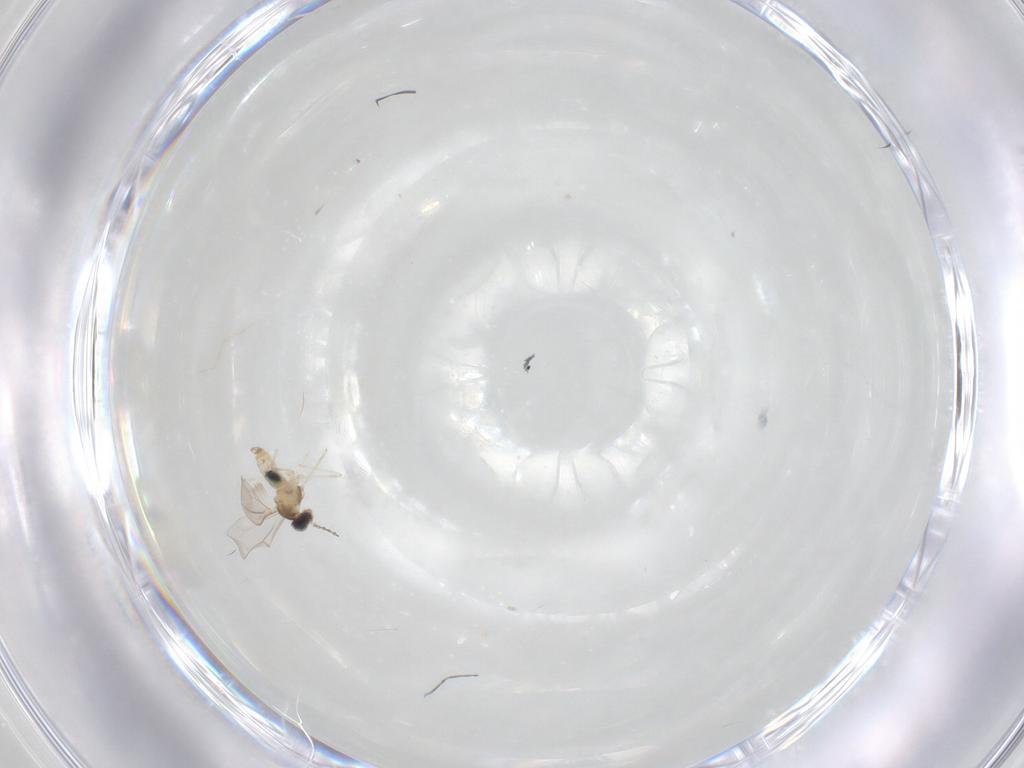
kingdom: Animalia
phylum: Arthropoda
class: Insecta
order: Diptera
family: Cecidomyiidae
